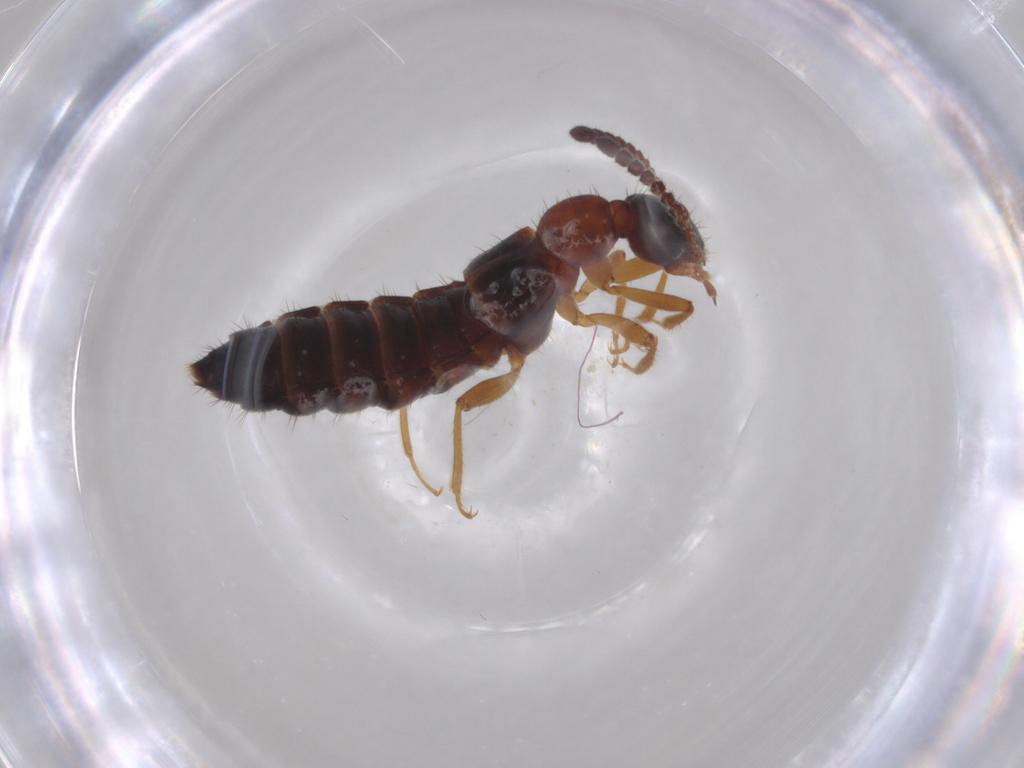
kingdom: Animalia
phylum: Arthropoda
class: Insecta
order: Coleoptera
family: Staphylinidae
